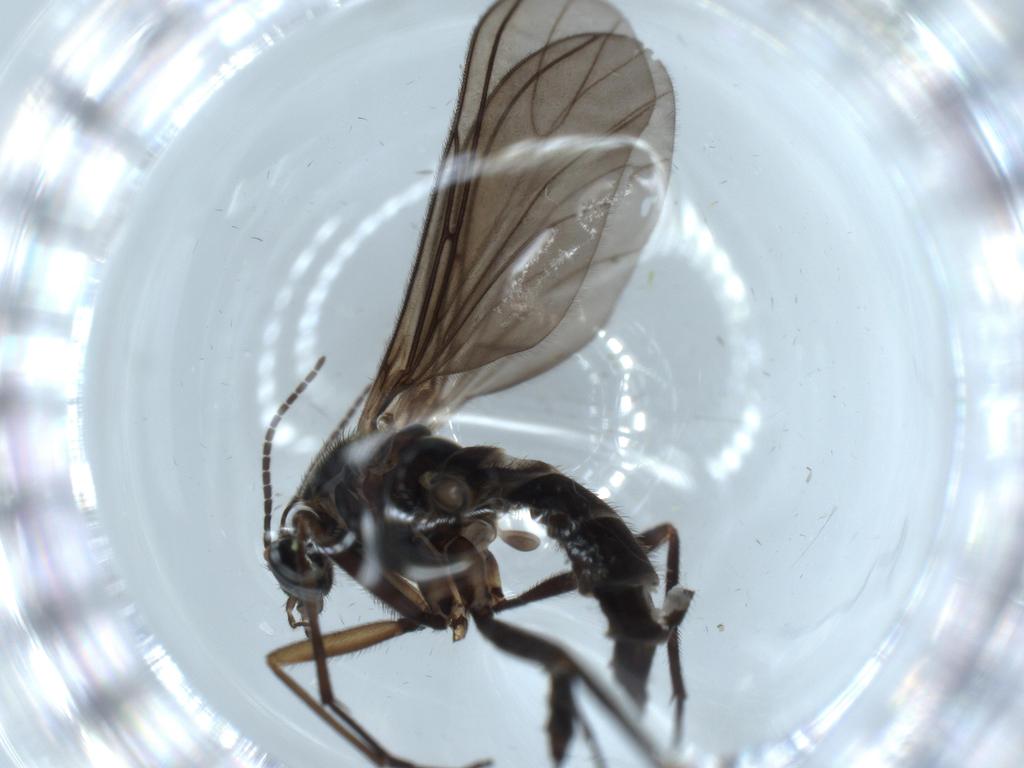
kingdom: Animalia
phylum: Arthropoda
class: Insecta
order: Diptera
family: Sciaridae
